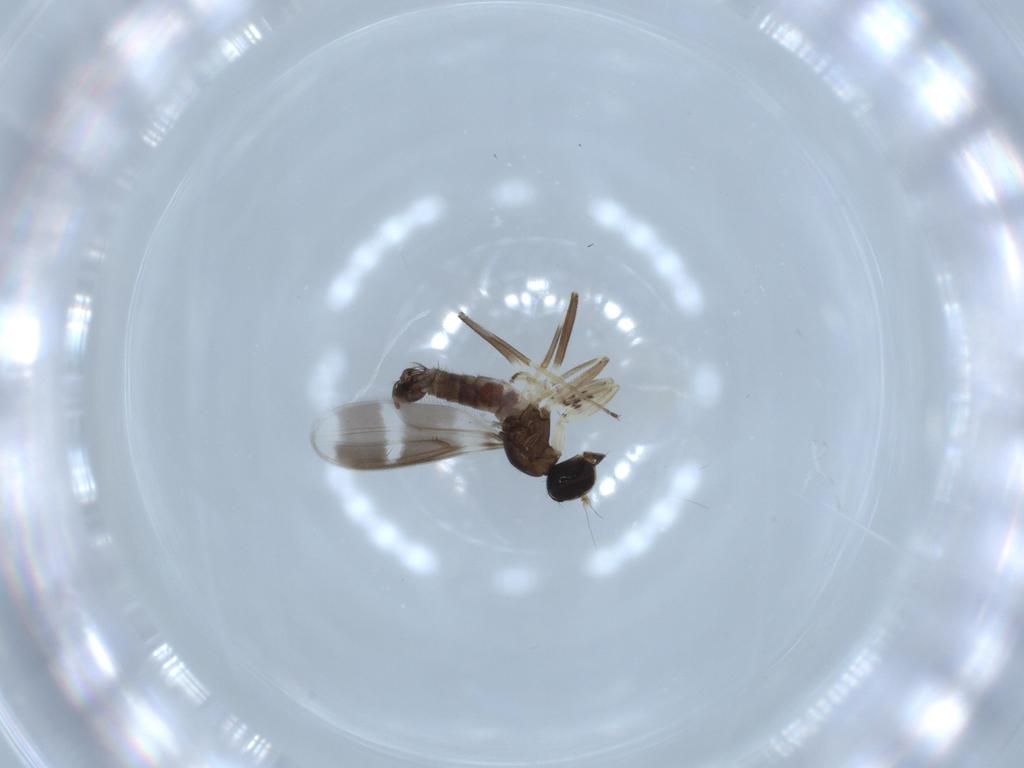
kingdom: Animalia
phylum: Arthropoda
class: Insecta
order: Diptera
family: Hybotidae
